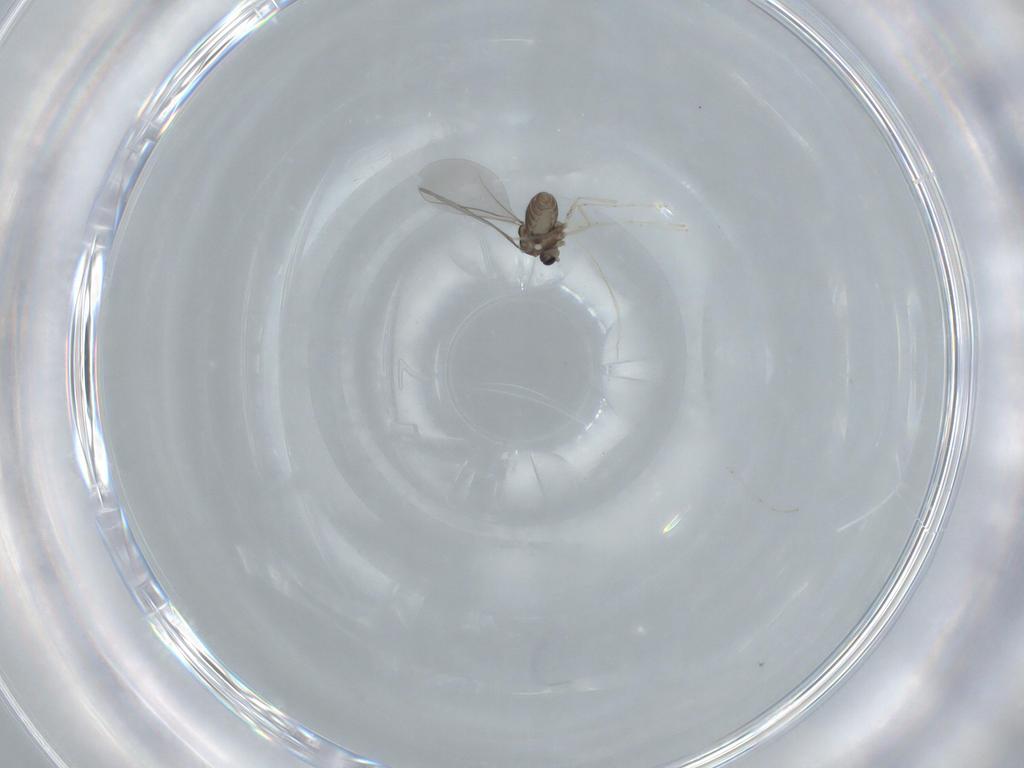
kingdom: Animalia
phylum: Arthropoda
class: Insecta
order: Diptera
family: Cecidomyiidae
